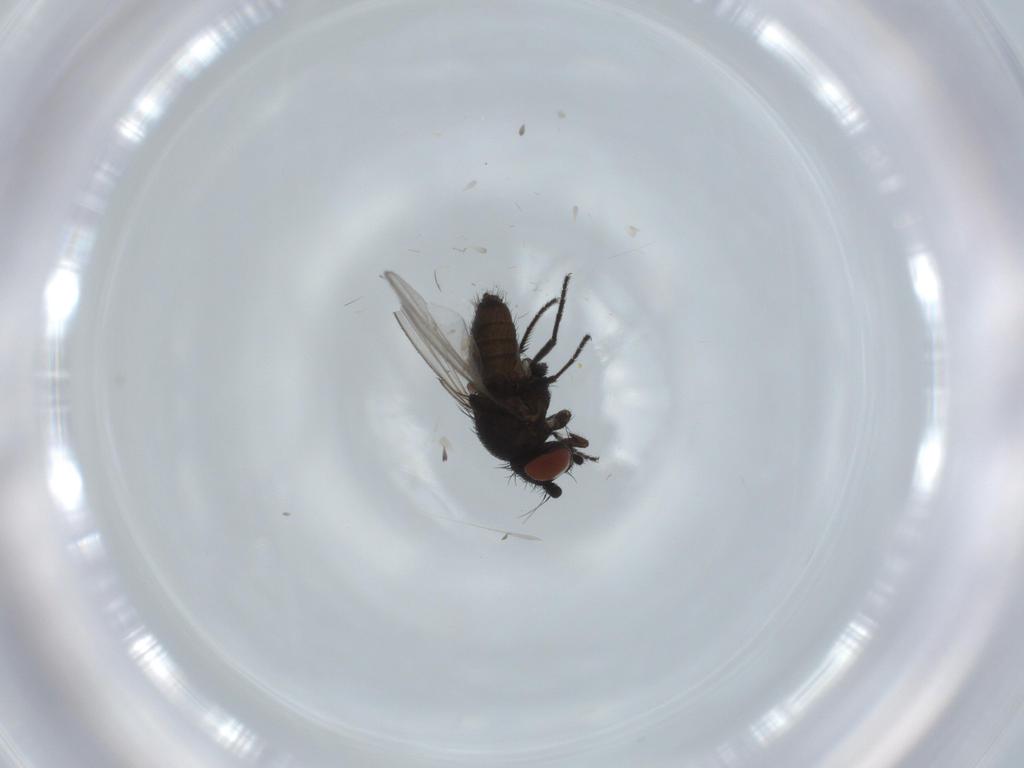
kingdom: Animalia
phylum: Arthropoda
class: Insecta
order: Diptera
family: Milichiidae
